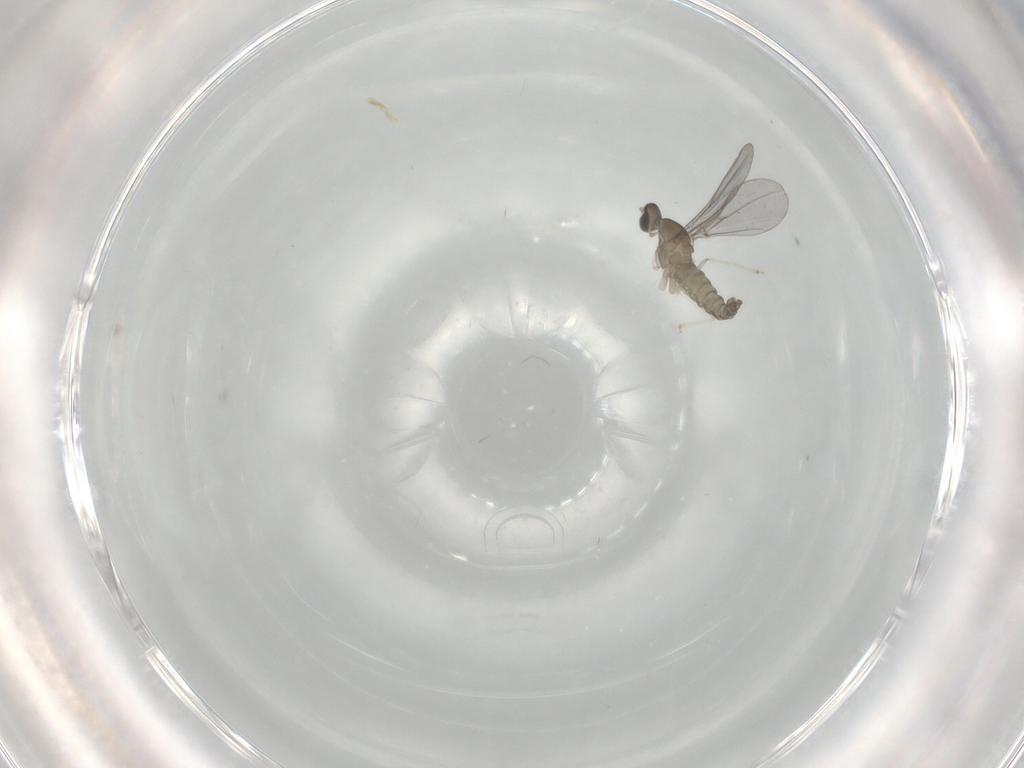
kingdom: Animalia
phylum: Arthropoda
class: Insecta
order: Diptera
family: Cecidomyiidae
